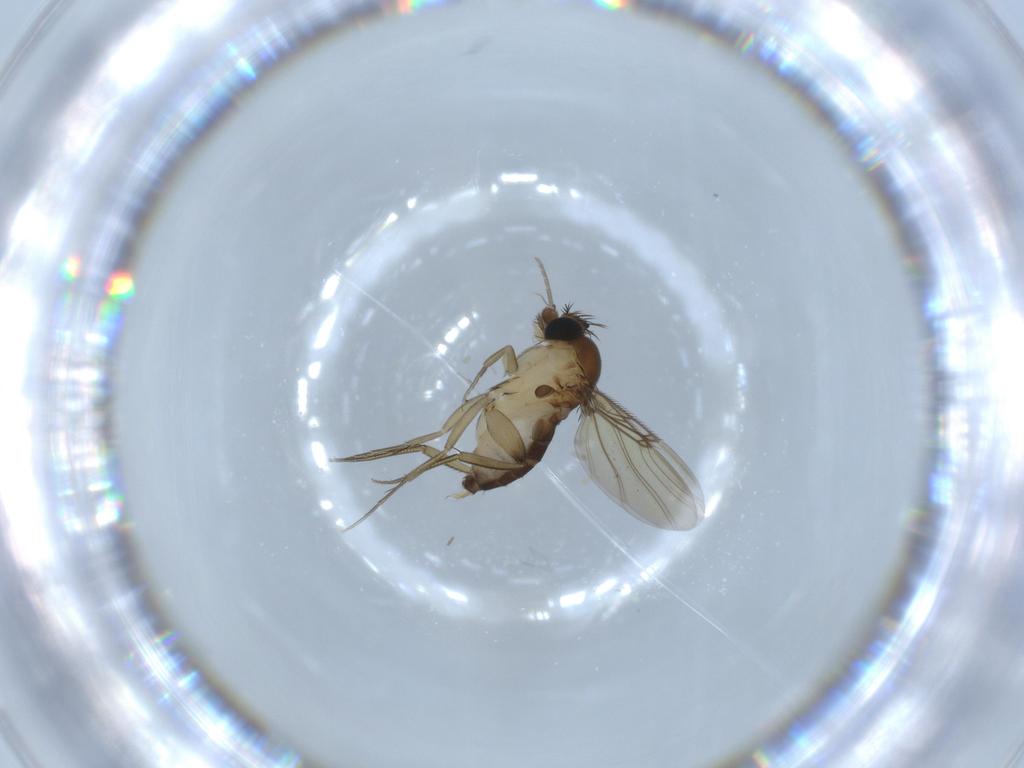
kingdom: Animalia
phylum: Arthropoda
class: Insecta
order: Diptera
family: Phoridae
